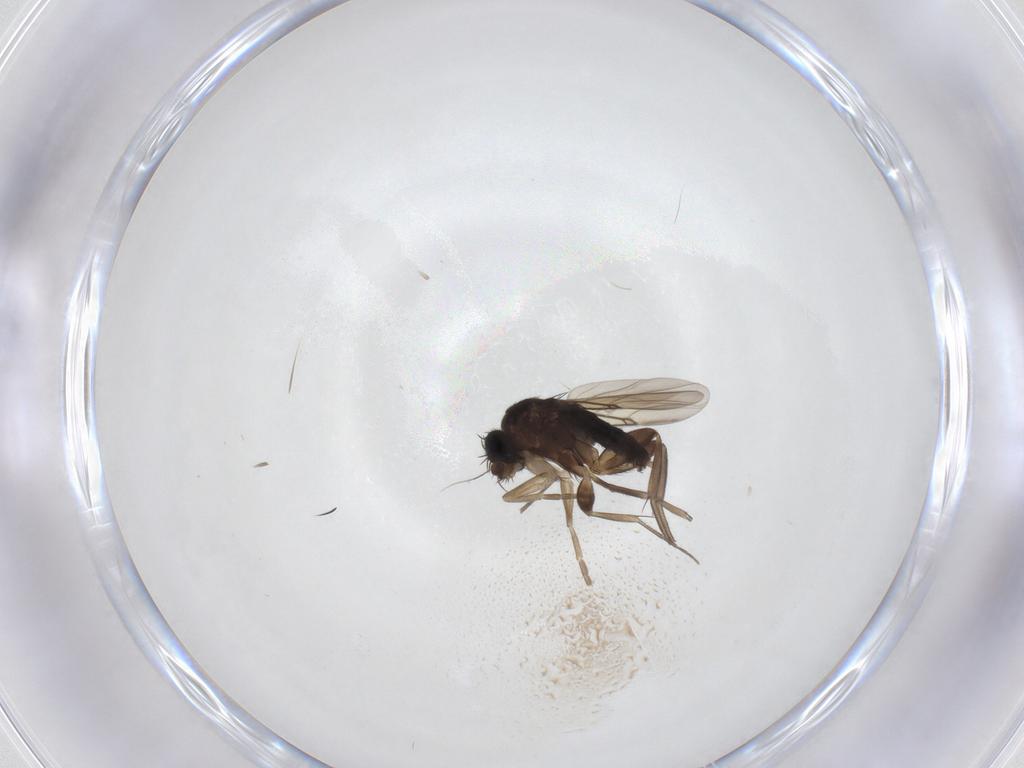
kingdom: Animalia
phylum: Arthropoda
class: Insecta
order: Diptera
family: Phoridae
